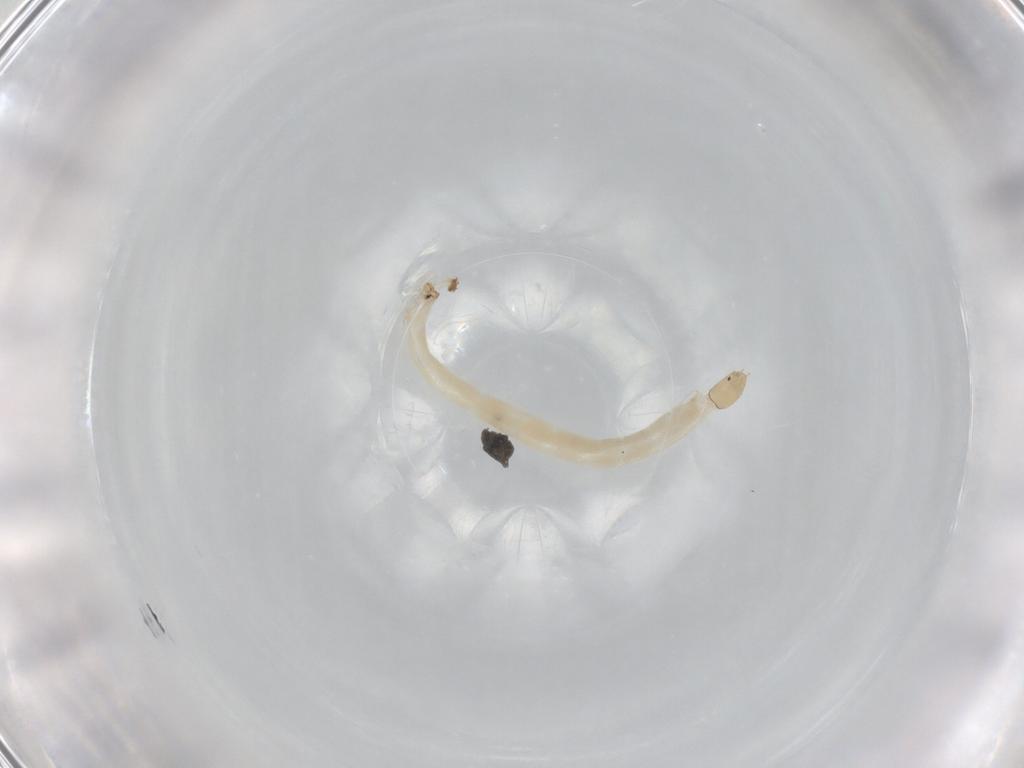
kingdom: Animalia
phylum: Arthropoda
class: Insecta
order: Diptera
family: Chironomidae
